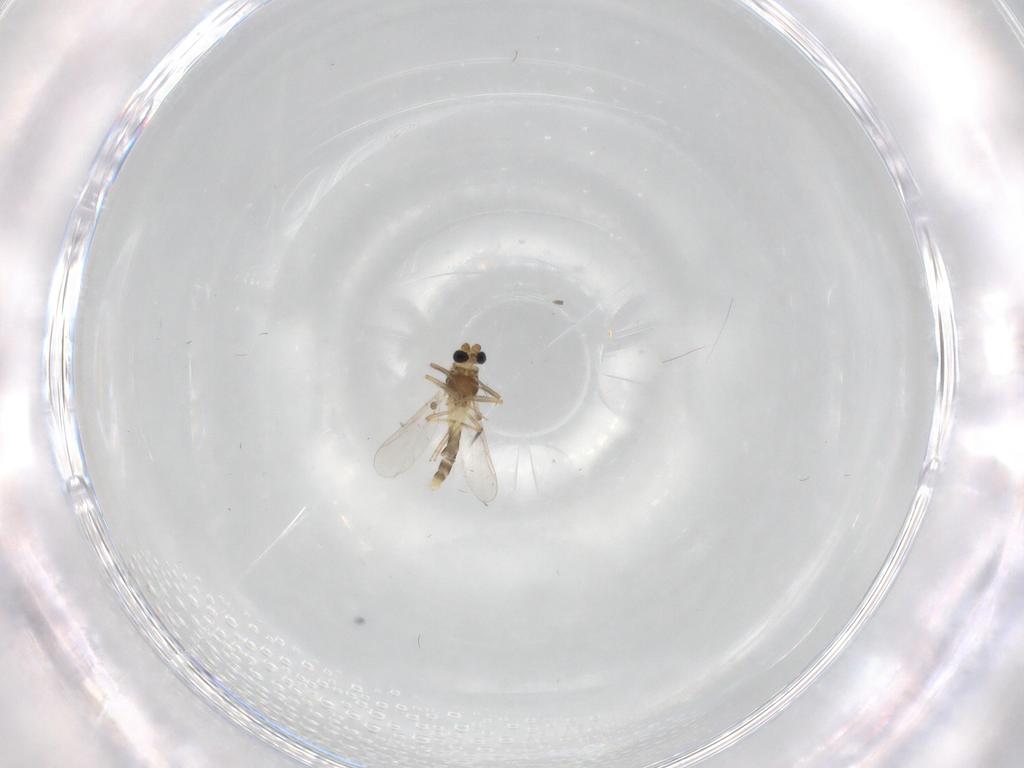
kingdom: Animalia
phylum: Arthropoda
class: Insecta
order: Diptera
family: Chironomidae
